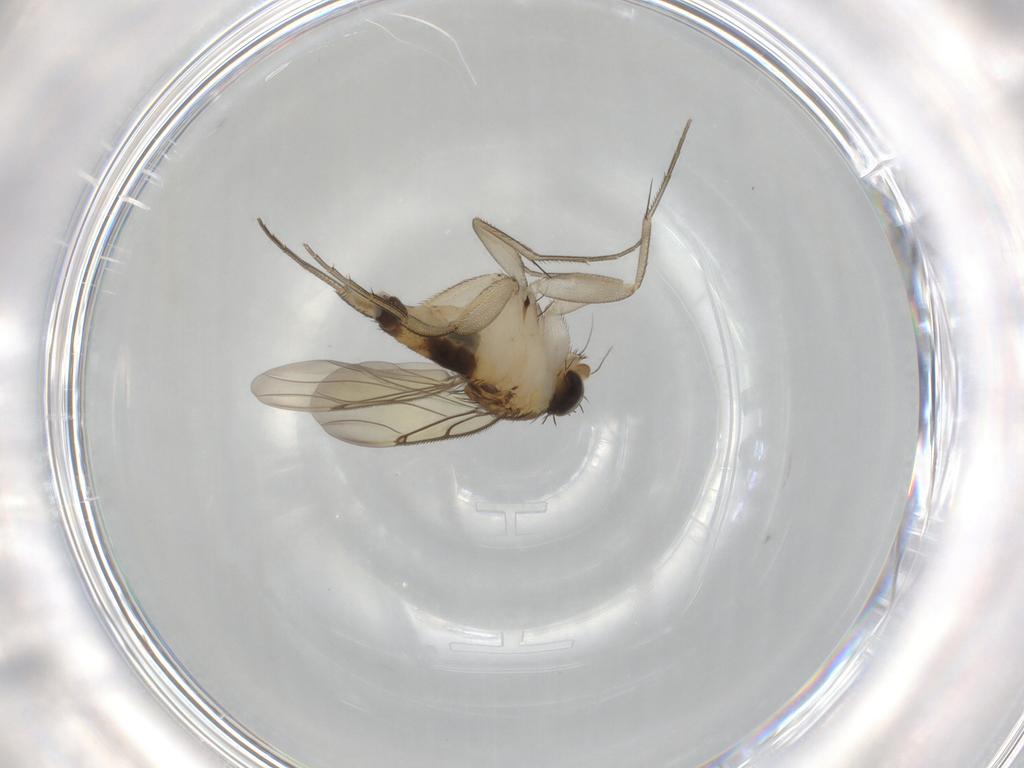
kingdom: Animalia
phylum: Arthropoda
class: Insecta
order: Diptera
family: Phoridae
